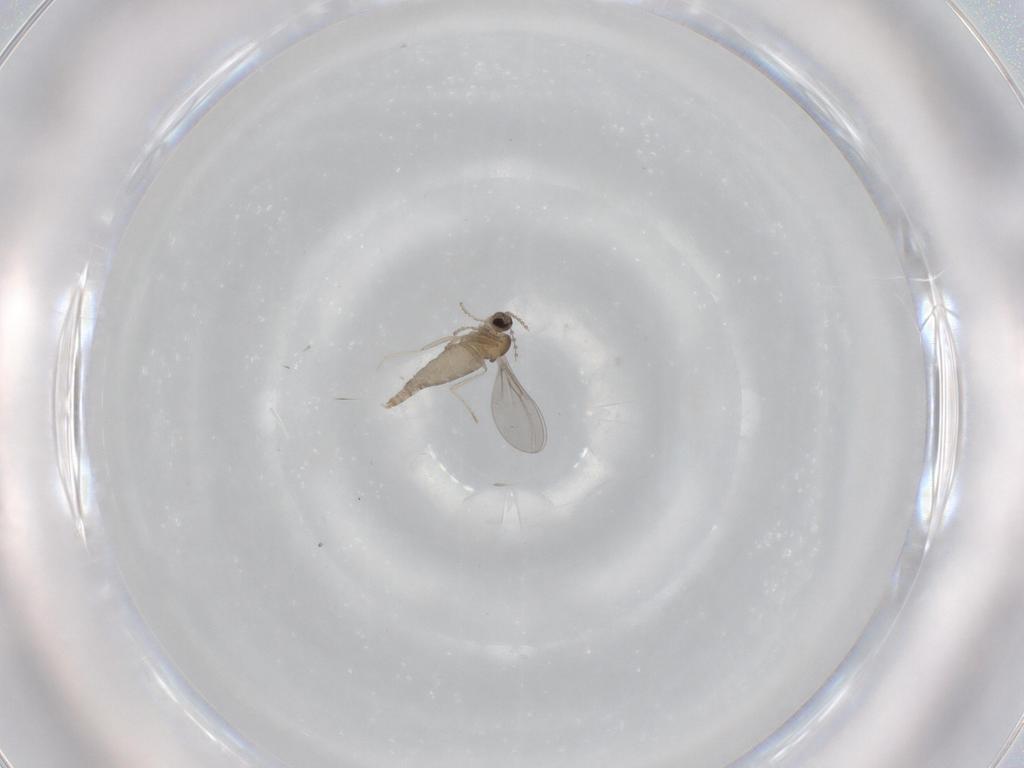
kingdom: Animalia
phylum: Arthropoda
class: Insecta
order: Diptera
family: Cecidomyiidae
